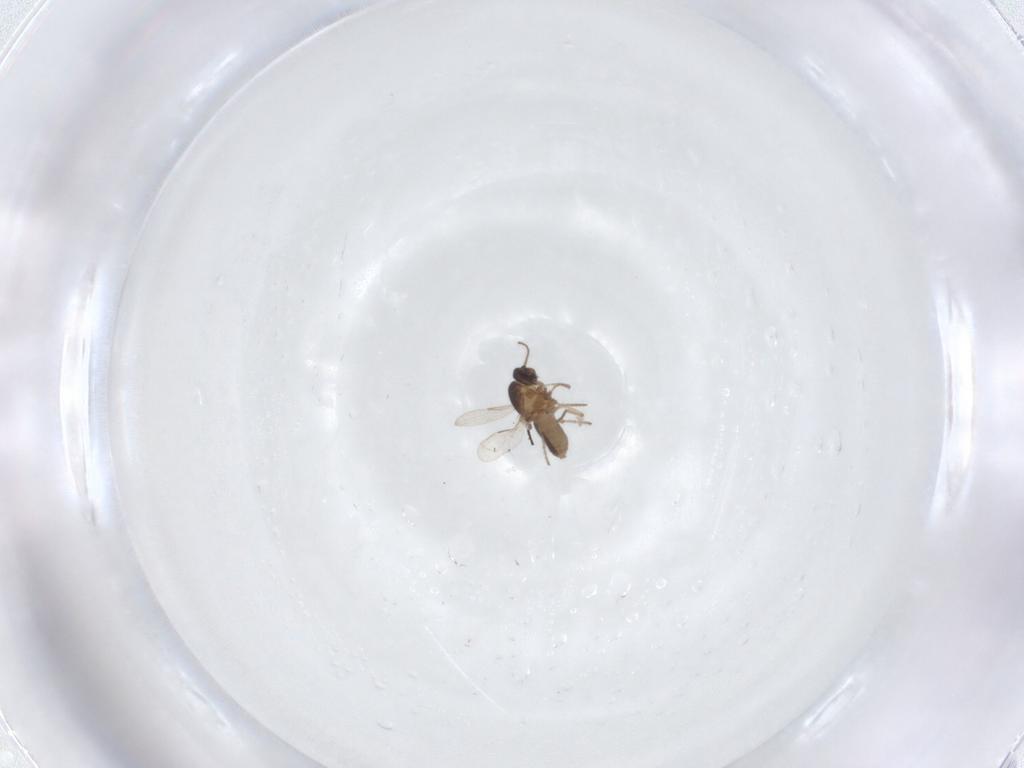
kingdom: Animalia
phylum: Arthropoda
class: Insecta
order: Diptera
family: Ceratopogonidae
